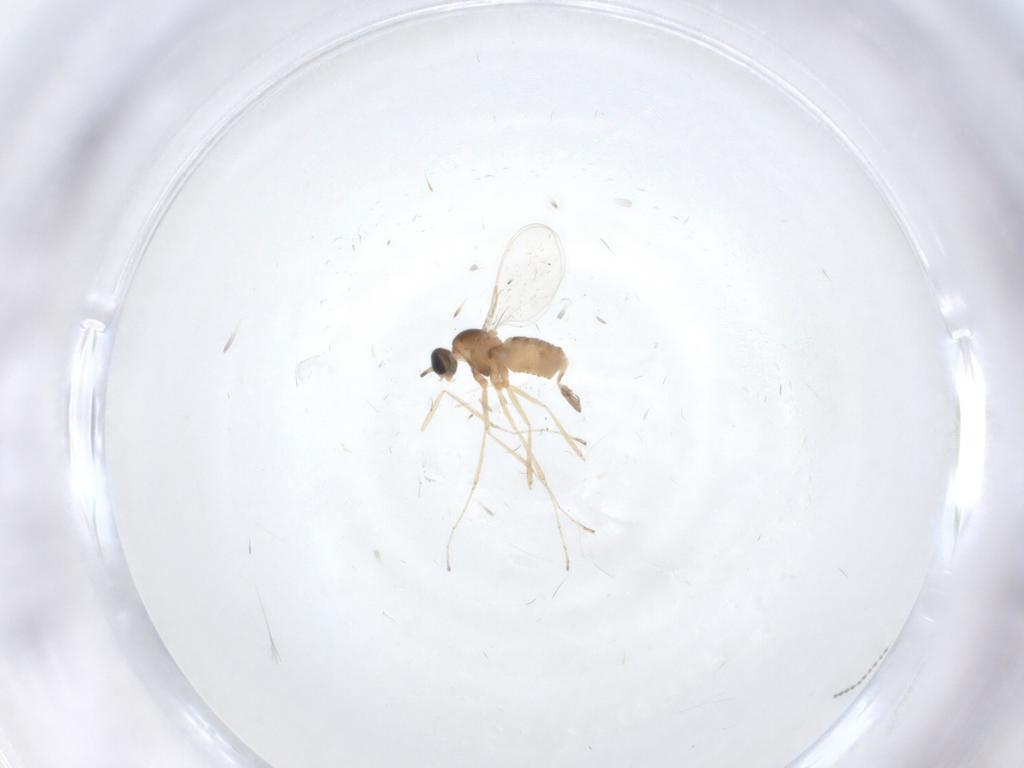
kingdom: Animalia
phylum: Arthropoda
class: Insecta
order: Diptera
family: Cecidomyiidae
